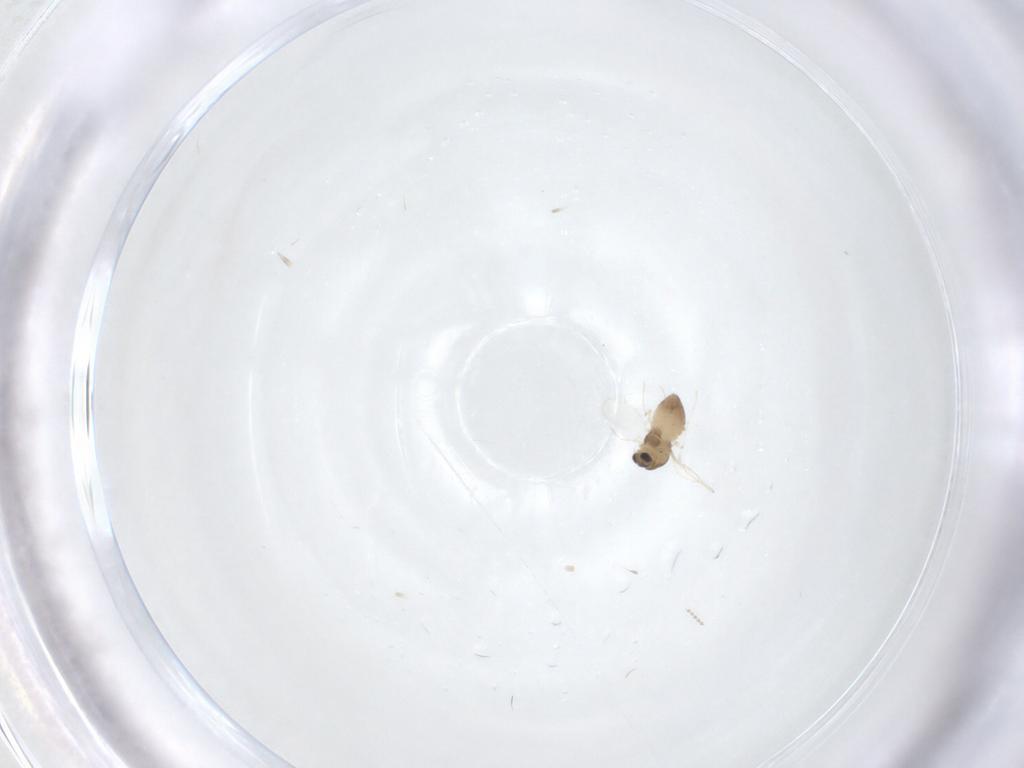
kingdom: Animalia
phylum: Arthropoda
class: Insecta
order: Diptera
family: Chironomidae
